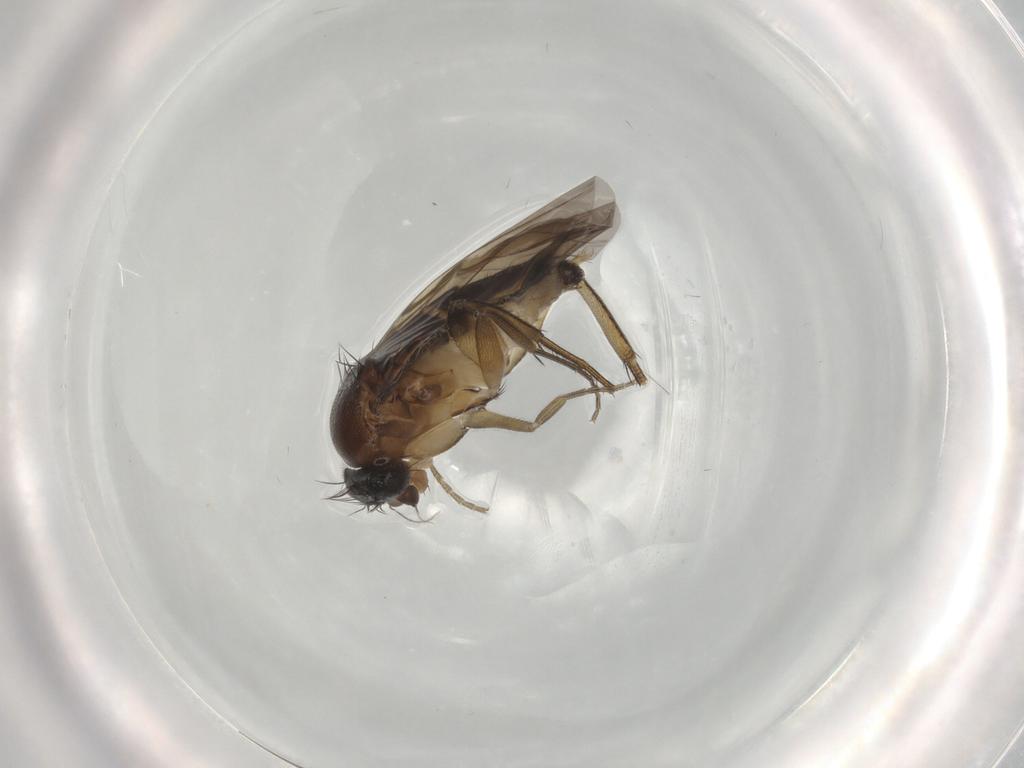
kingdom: Animalia
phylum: Arthropoda
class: Insecta
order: Diptera
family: Phoridae
